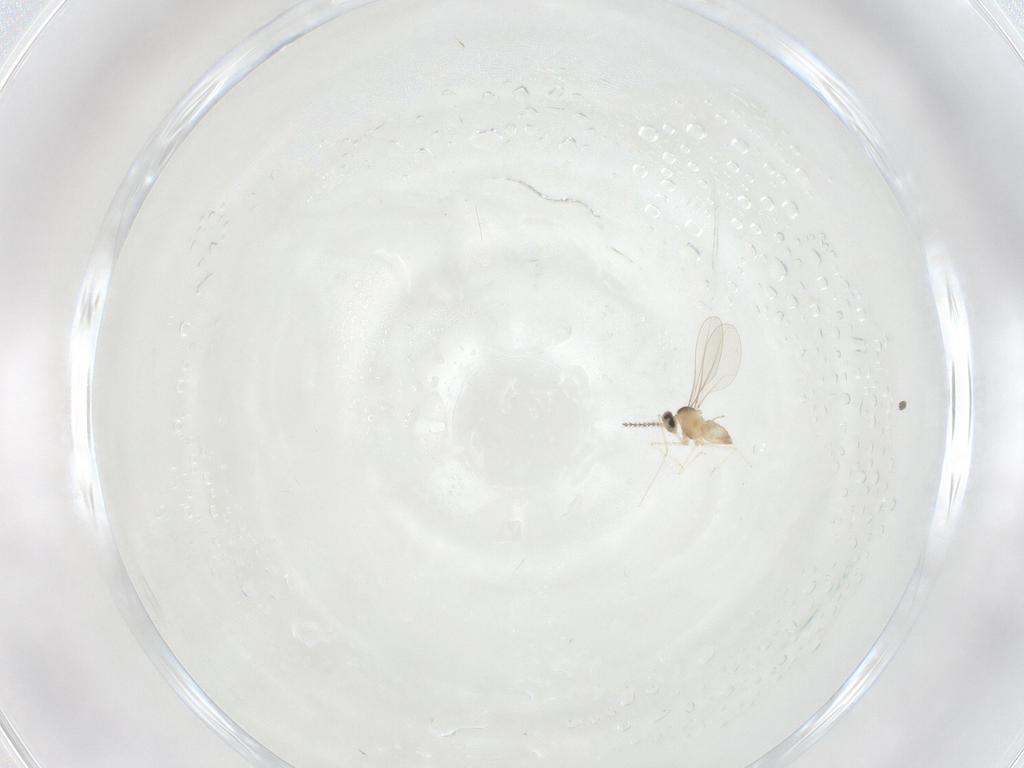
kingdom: Animalia
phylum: Arthropoda
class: Insecta
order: Diptera
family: Cecidomyiidae
